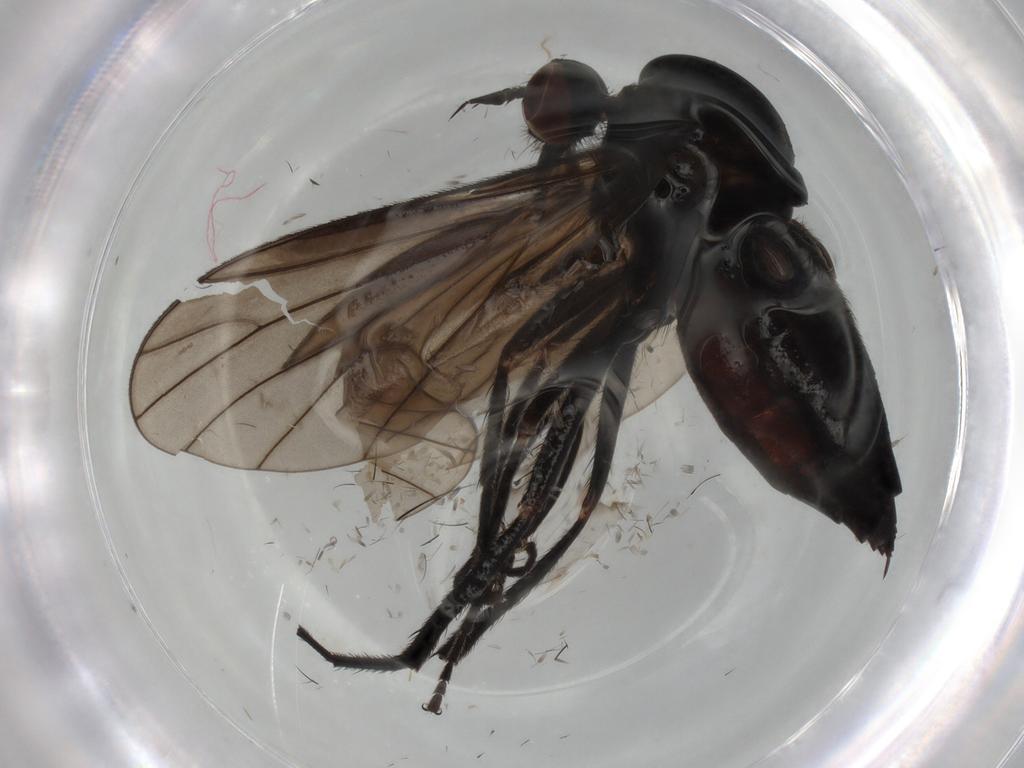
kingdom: Animalia
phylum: Arthropoda
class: Insecta
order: Diptera
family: Empididae
